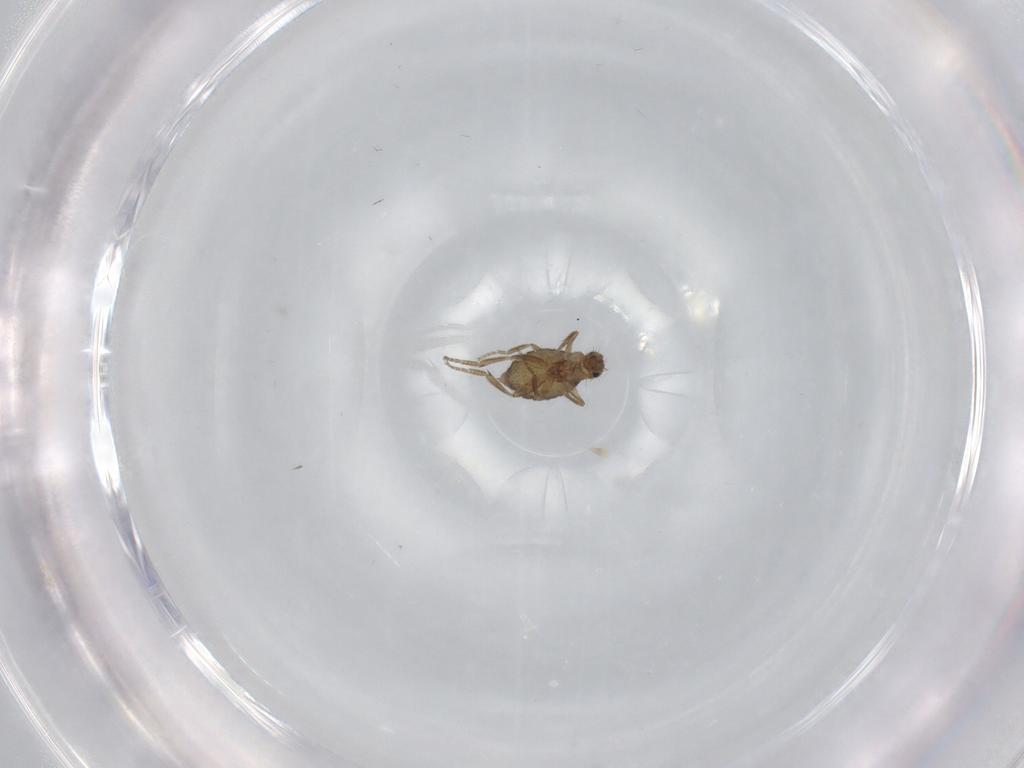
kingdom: Animalia
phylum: Arthropoda
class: Insecta
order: Diptera
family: Phoridae
